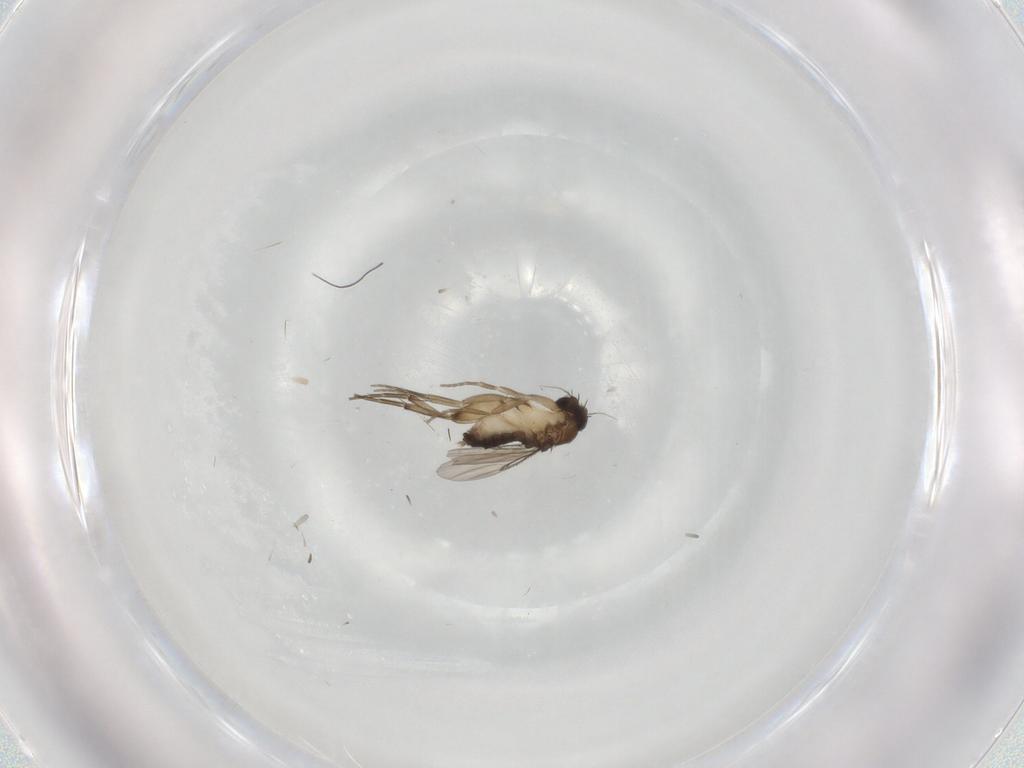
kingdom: Animalia
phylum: Arthropoda
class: Insecta
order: Diptera
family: Phoridae
